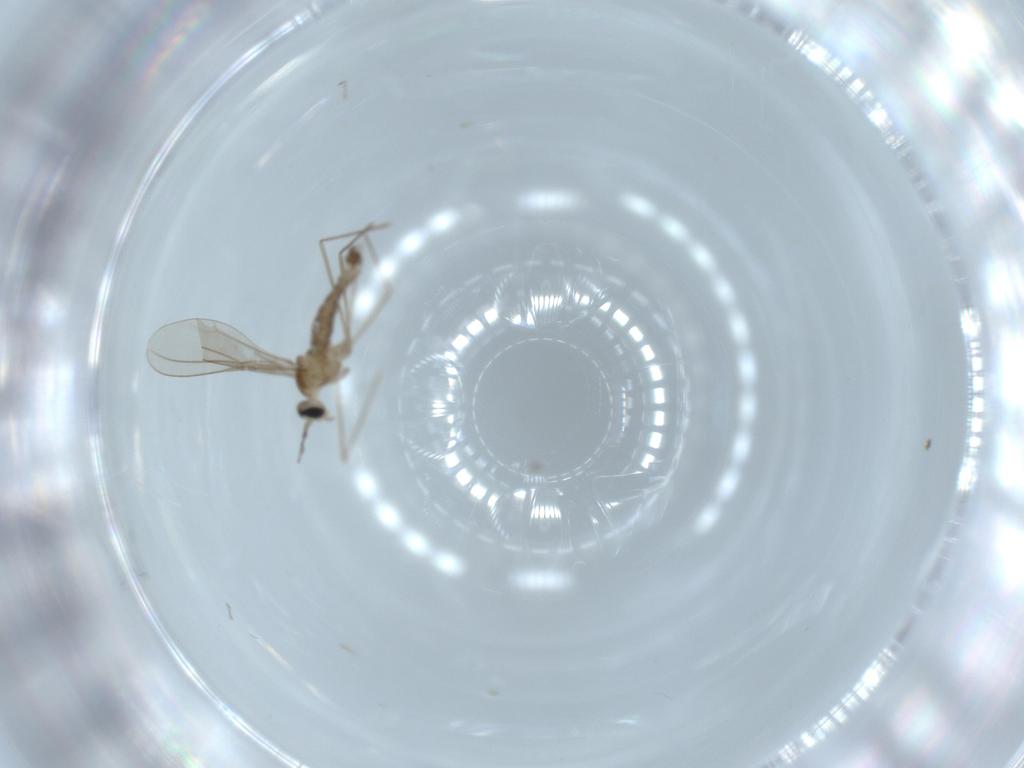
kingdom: Animalia
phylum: Arthropoda
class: Insecta
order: Diptera
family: Cecidomyiidae
